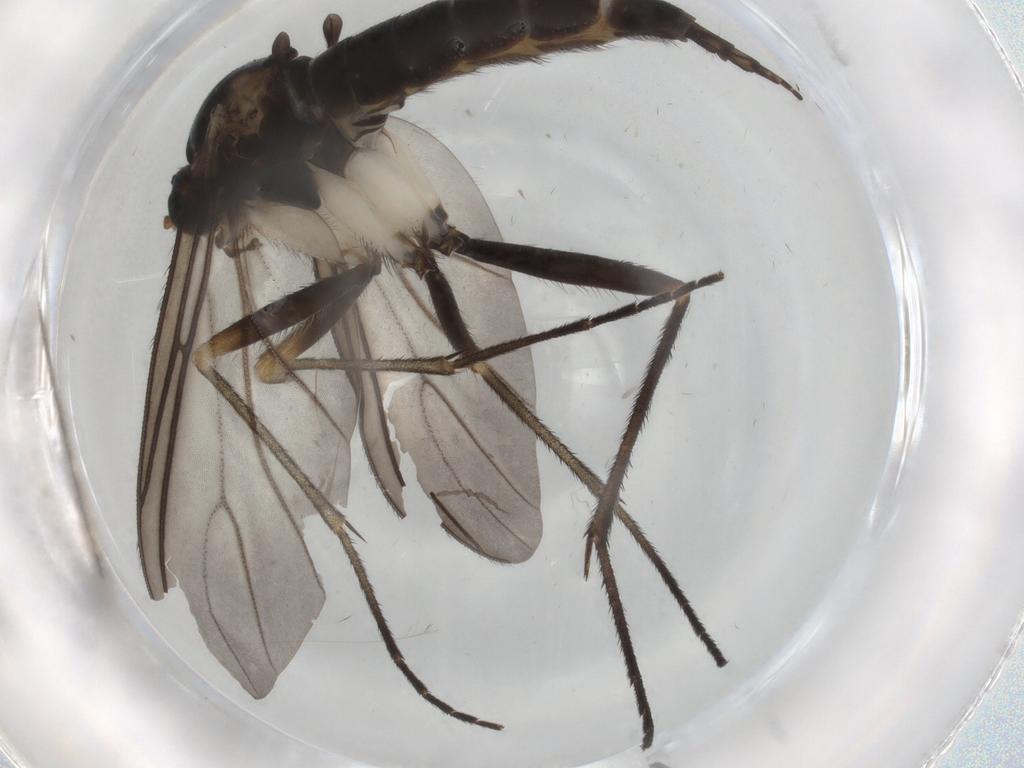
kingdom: Animalia
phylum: Arthropoda
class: Insecta
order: Diptera
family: Sciaridae
